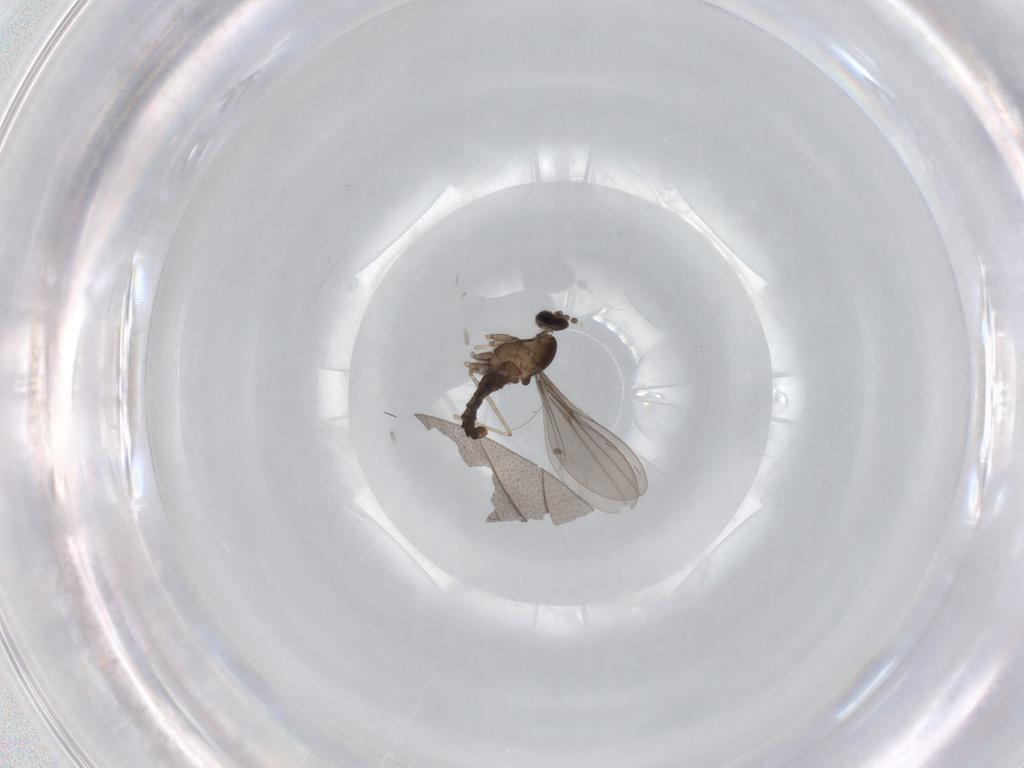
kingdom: Animalia
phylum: Arthropoda
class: Insecta
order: Diptera
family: Cecidomyiidae
